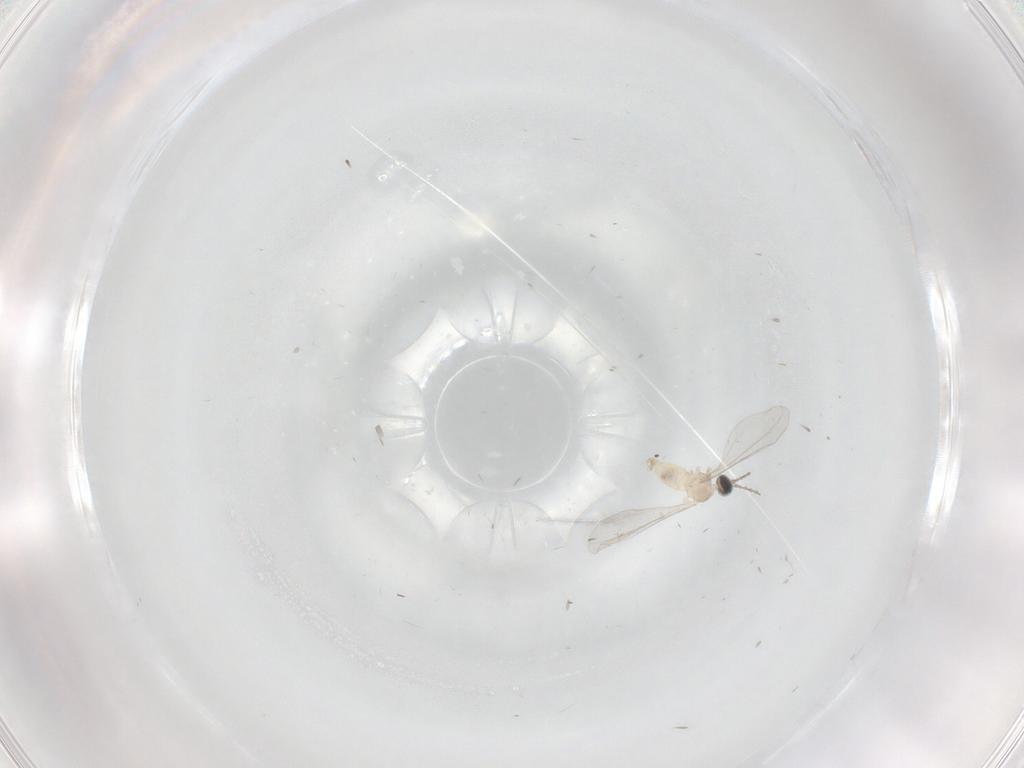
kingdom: Animalia
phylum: Arthropoda
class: Insecta
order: Diptera
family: Cecidomyiidae
